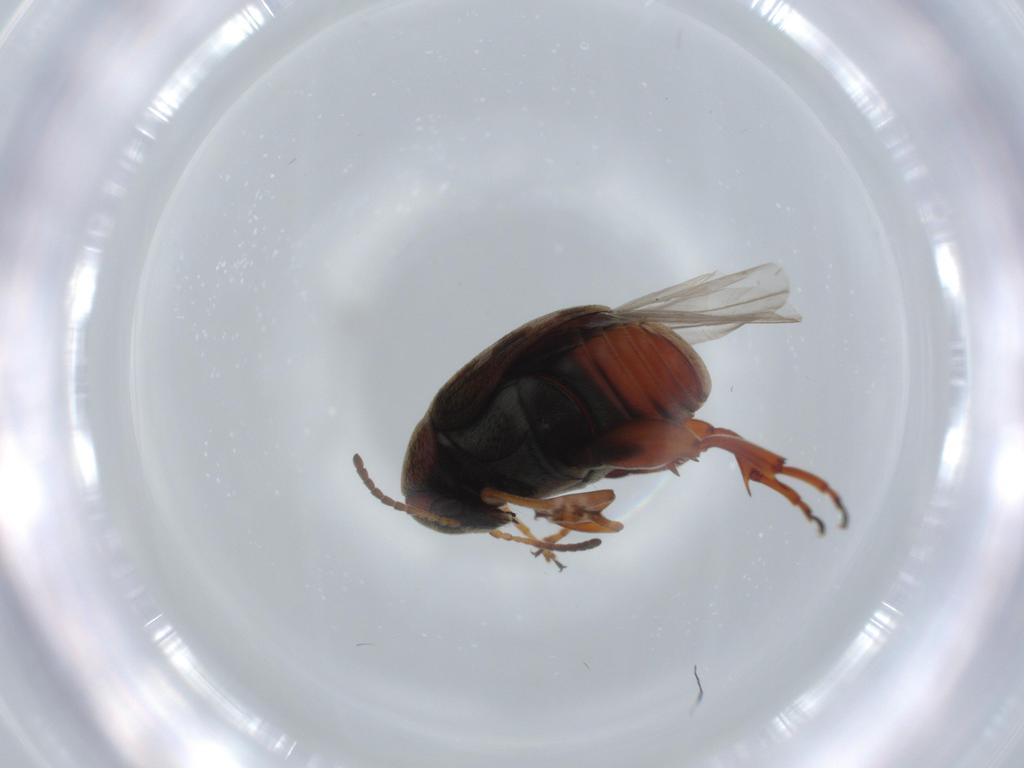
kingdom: Animalia
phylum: Arthropoda
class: Insecta
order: Coleoptera
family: Chrysomelidae
